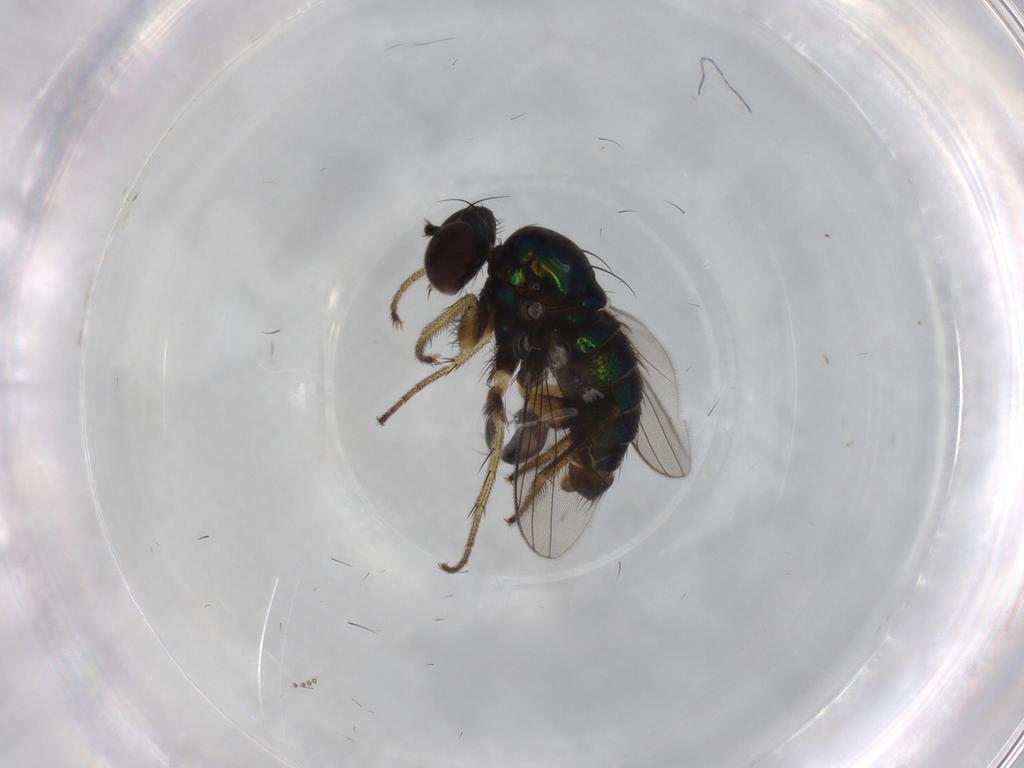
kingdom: Animalia
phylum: Arthropoda
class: Insecta
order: Diptera
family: Dolichopodidae
